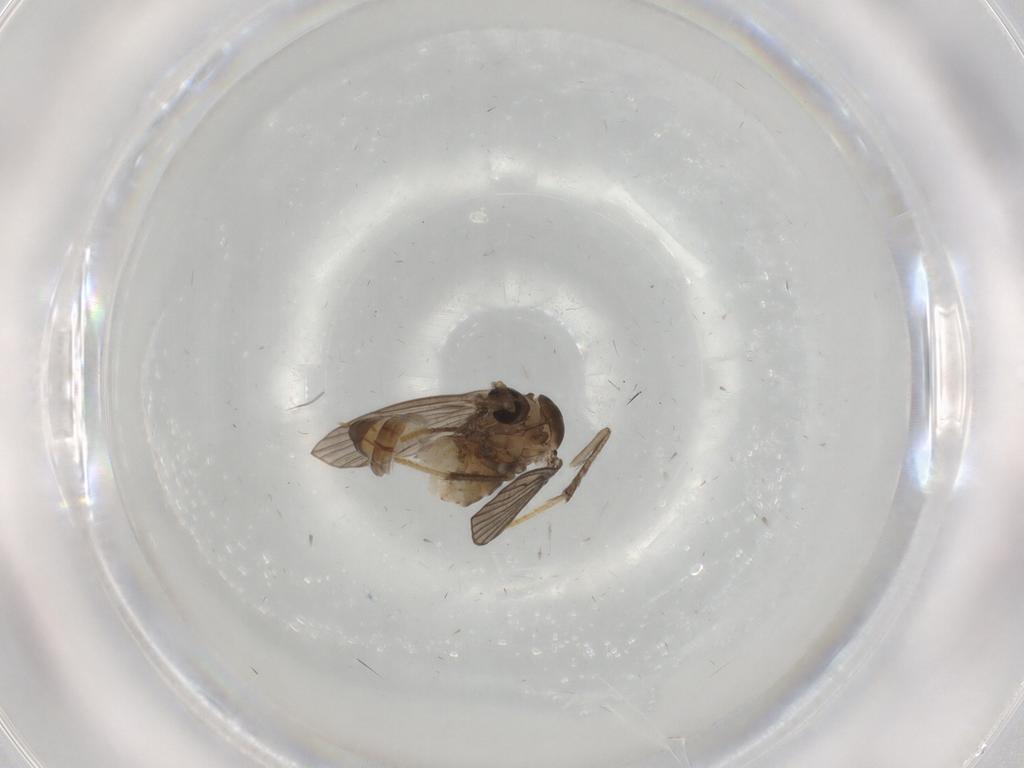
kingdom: Animalia
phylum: Arthropoda
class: Insecta
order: Diptera
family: Psychodidae
